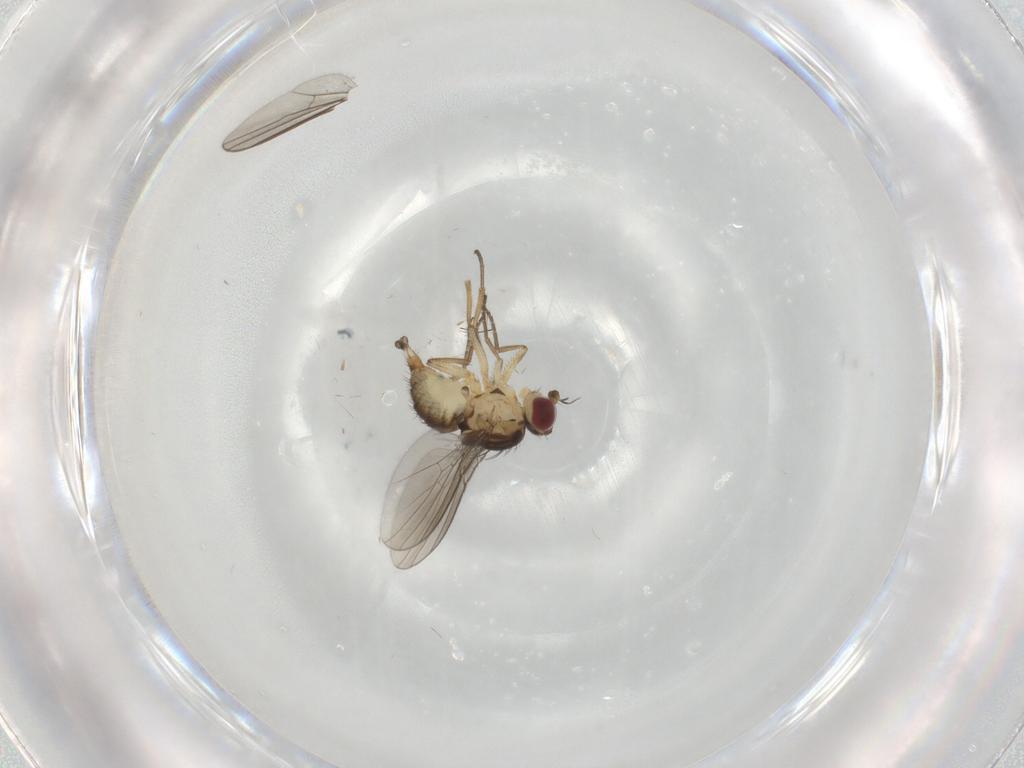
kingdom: Animalia
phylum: Arthropoda
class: Insecta
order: Diptera
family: Agromyzidae
